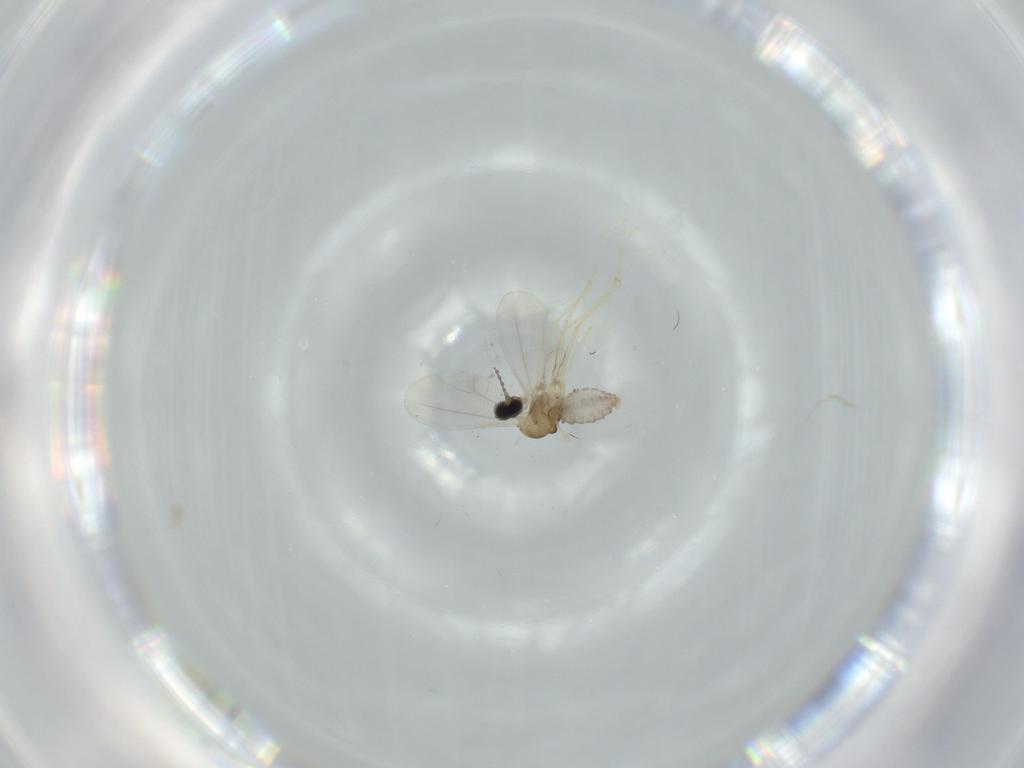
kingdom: Animalia
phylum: Arthropoda
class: Insecta
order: Diptera
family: Cecidomyiidae
